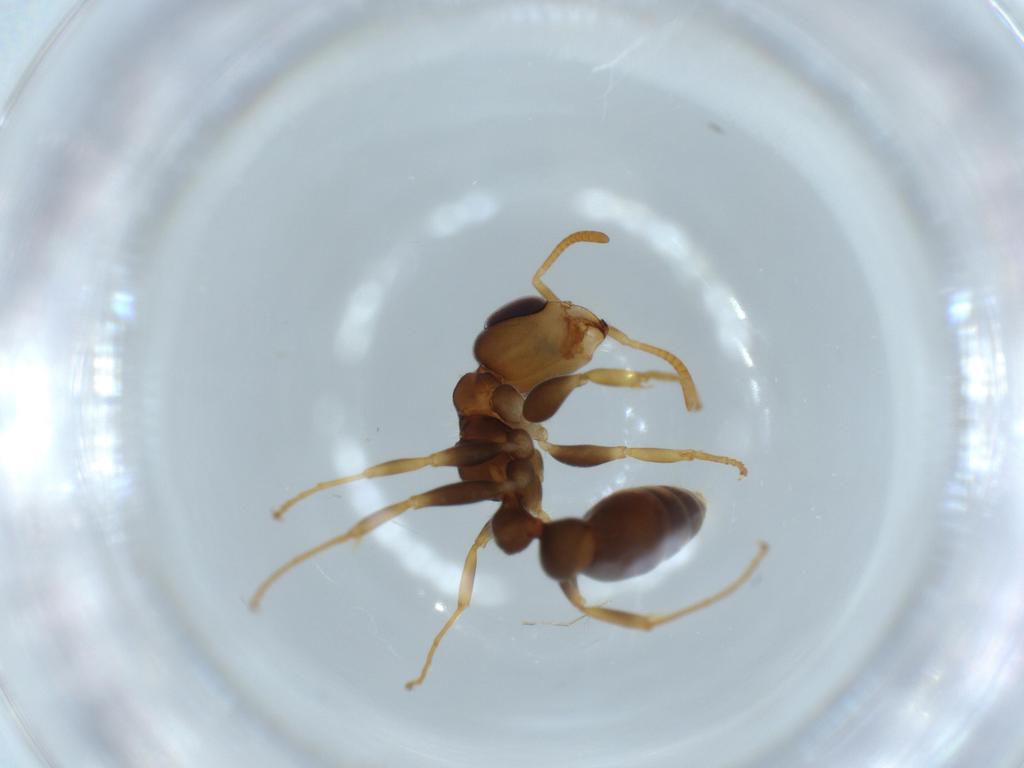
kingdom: Animalia
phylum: Arthropoda
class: Insecta
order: Hymenoptera
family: Formicidae
